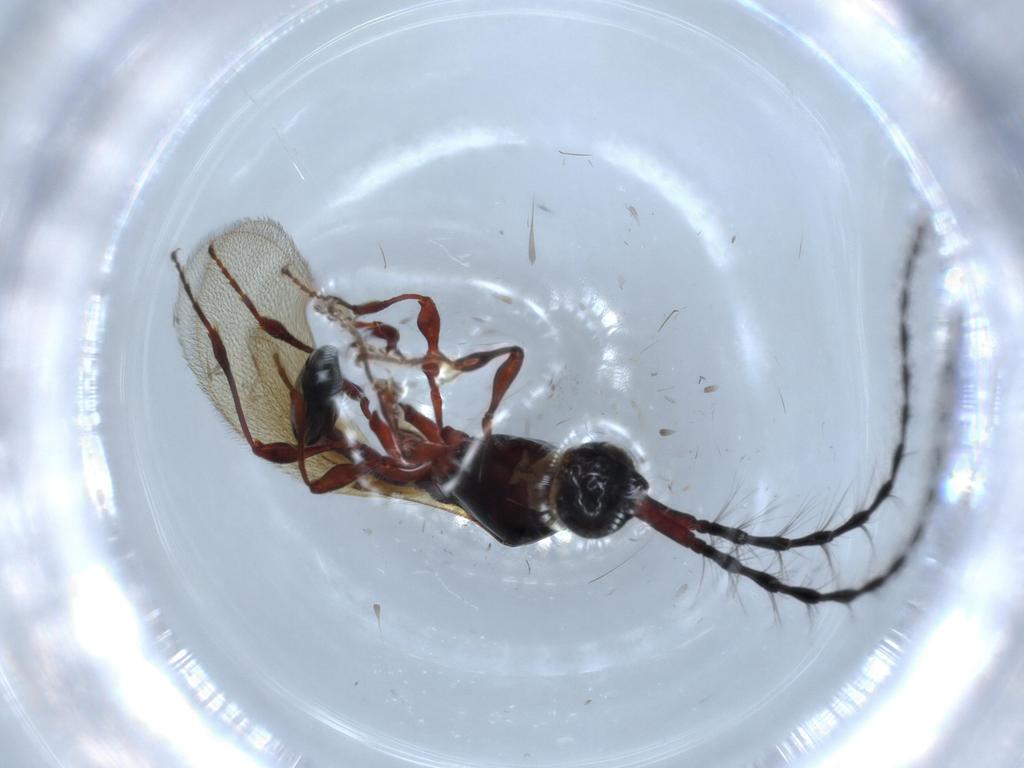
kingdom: Animalia
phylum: Arthropoda
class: Insecta
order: Hymenoptera
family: Diapriidae
